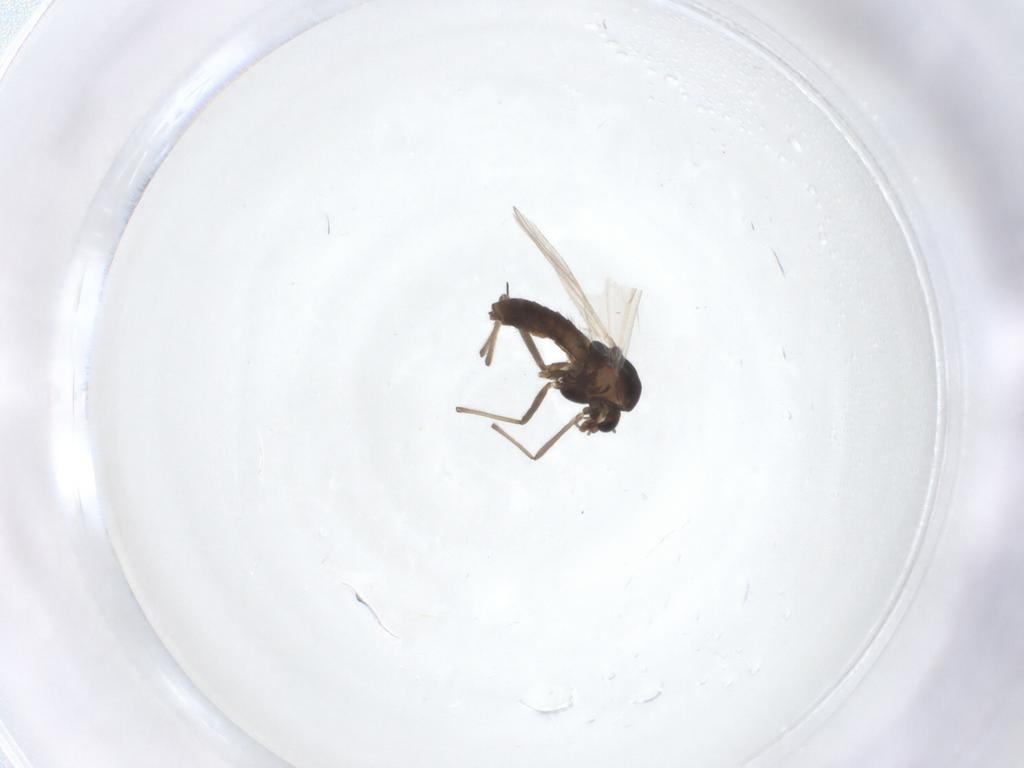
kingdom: Animalia
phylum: Arthropoda
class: Insecta
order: Diptera
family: Chironomidae
